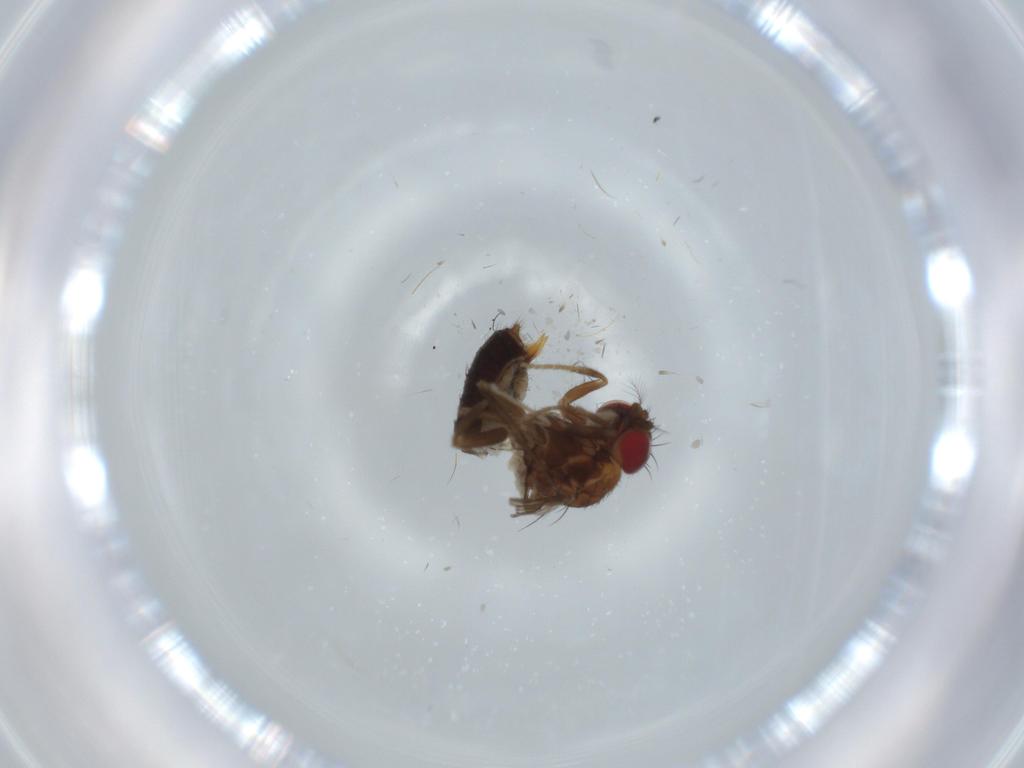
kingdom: Animalia
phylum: Arthropoda
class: Insecta
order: Diptera
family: Drosophilidae
